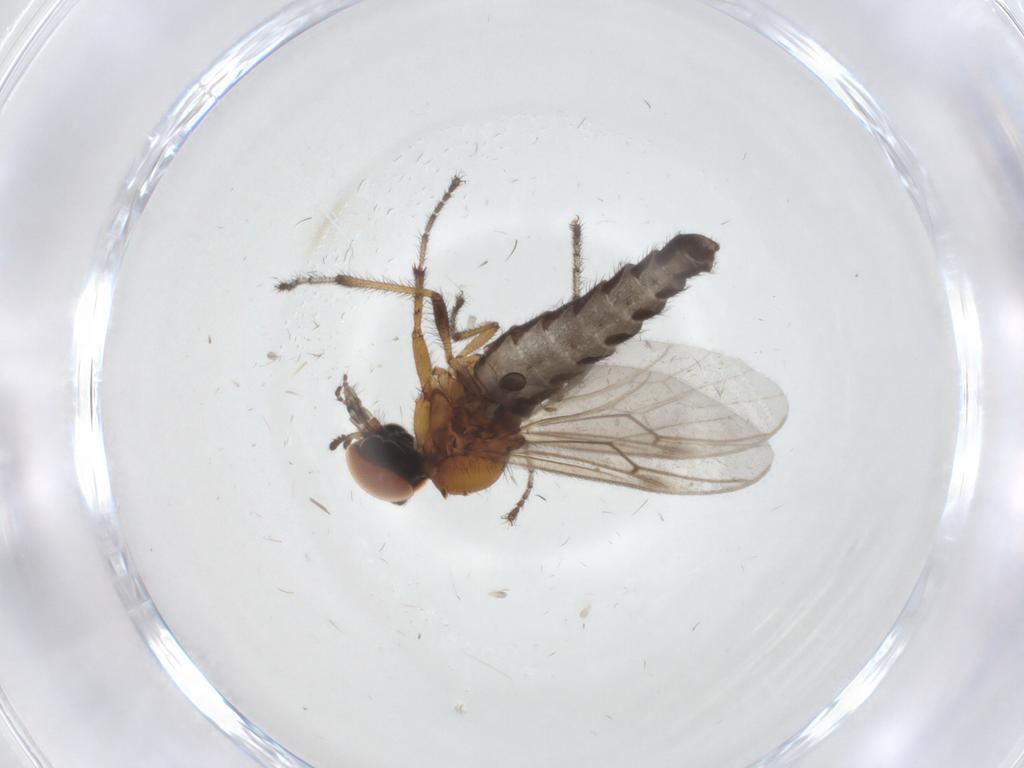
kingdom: Animalia
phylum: Arthropoda
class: Insecta
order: Diptera
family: Bibionidae
